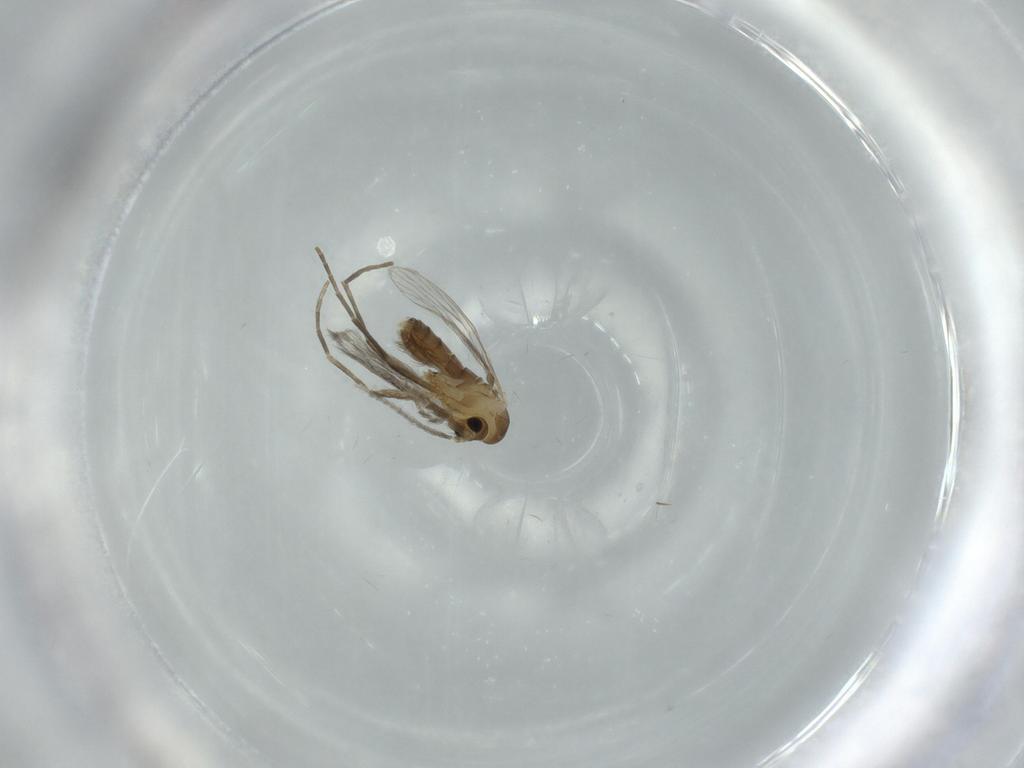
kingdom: Animalia
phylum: Arthropoda
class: Insecta
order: Diptera
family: Psychodidae
